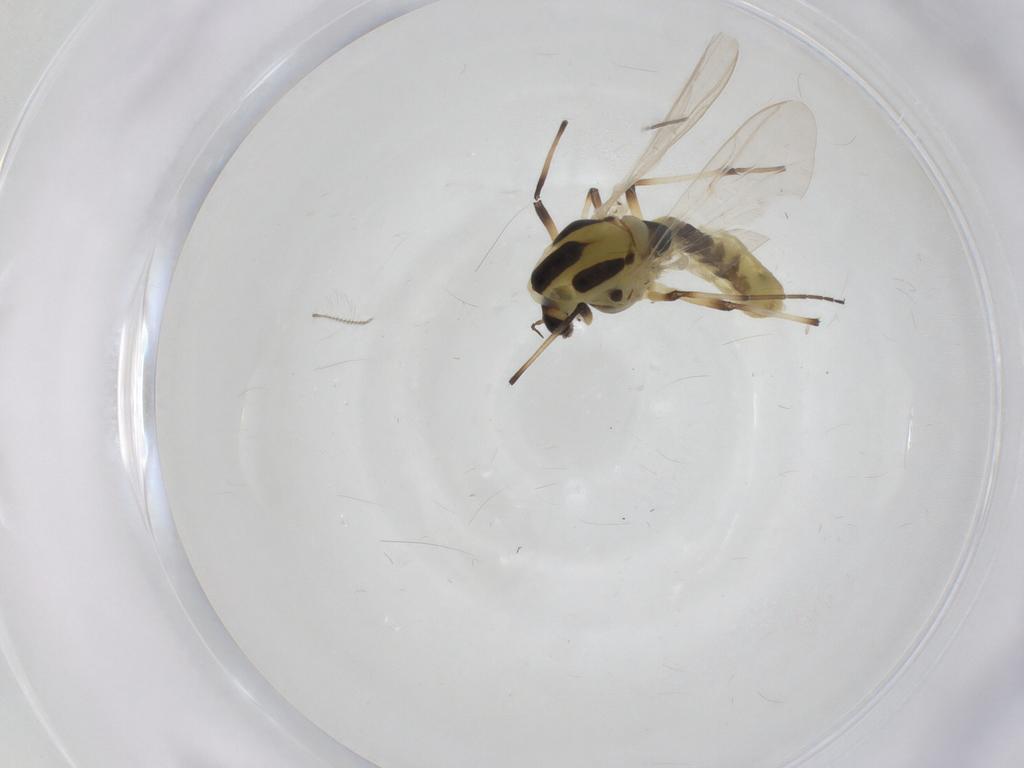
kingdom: Animalia
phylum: Arthropoda
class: Insecta
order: Diptera
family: Chironomidae
